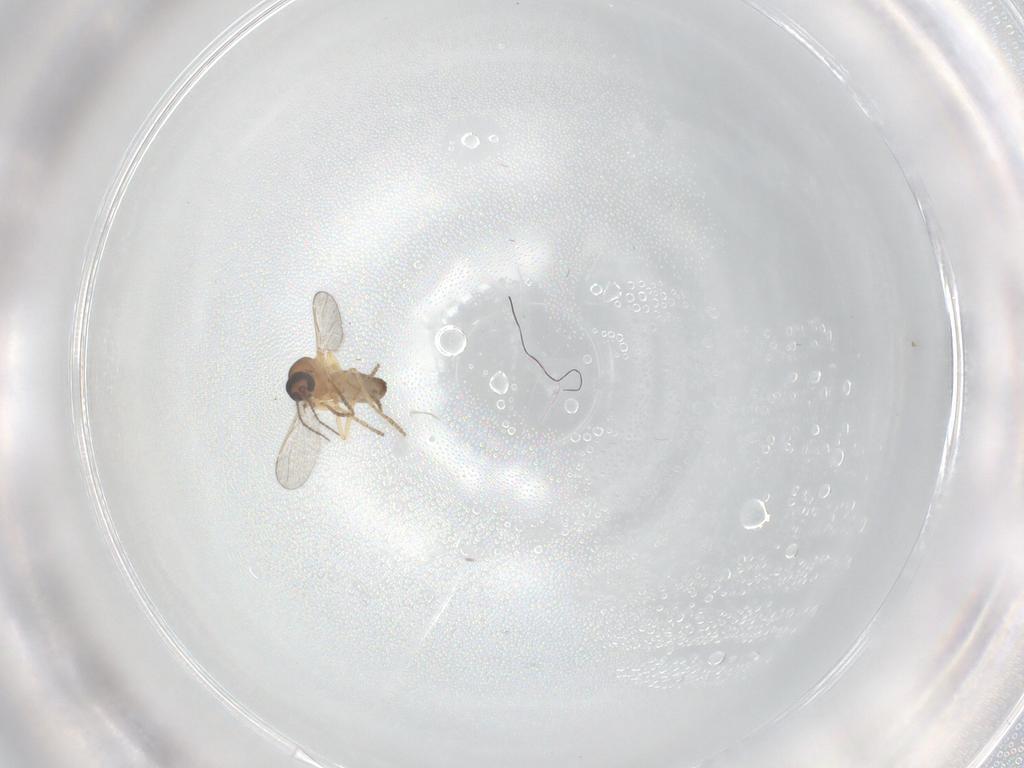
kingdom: Animalia
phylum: Arthropoda
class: Insecta
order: Diptera
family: Phoridae
